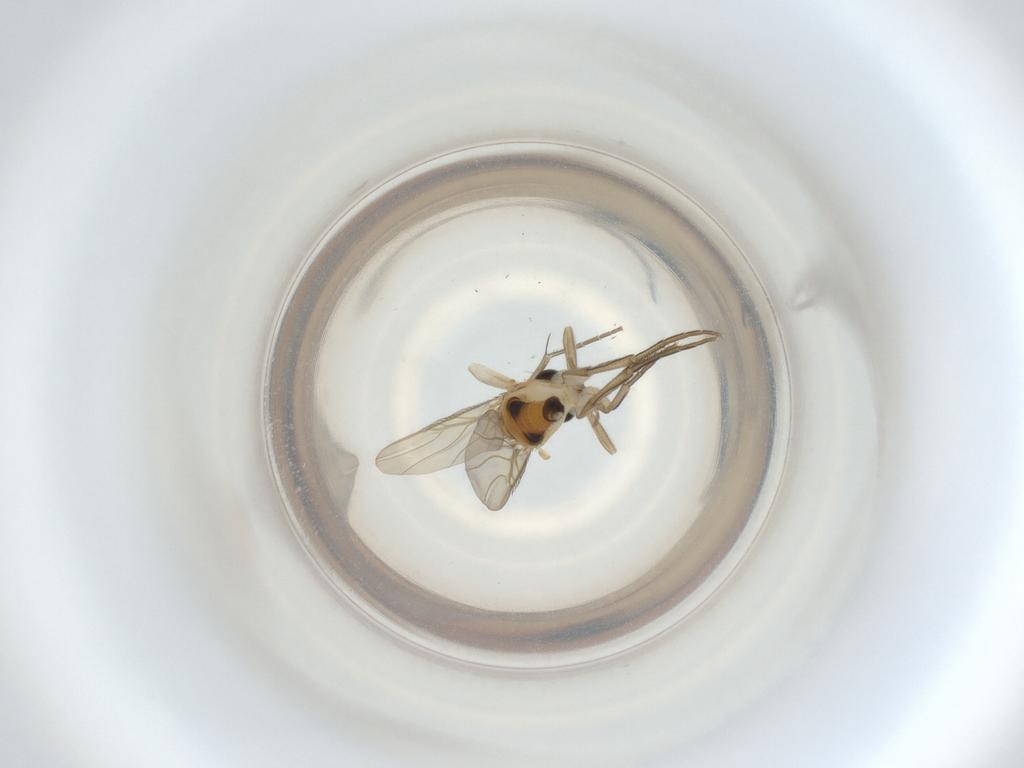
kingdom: Animalia
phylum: Arthropoda
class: Insecta
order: Diptera
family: Phoridae
